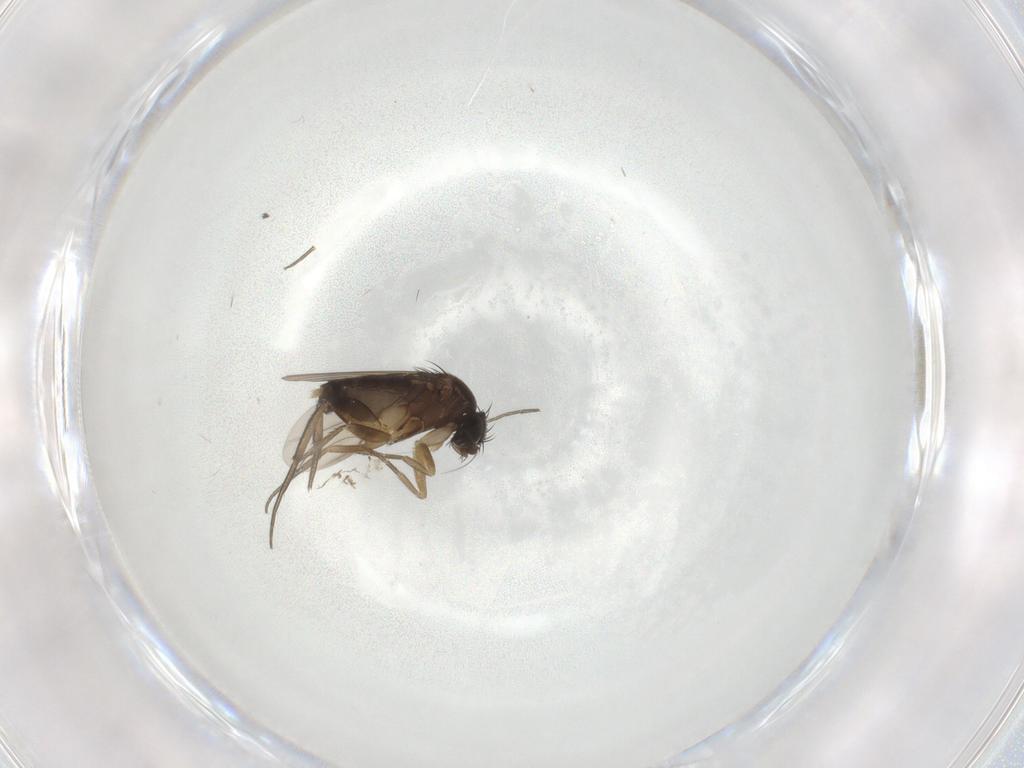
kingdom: Animalia
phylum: Arthropoda
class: Insecta
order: Diptera
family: Phoridae
